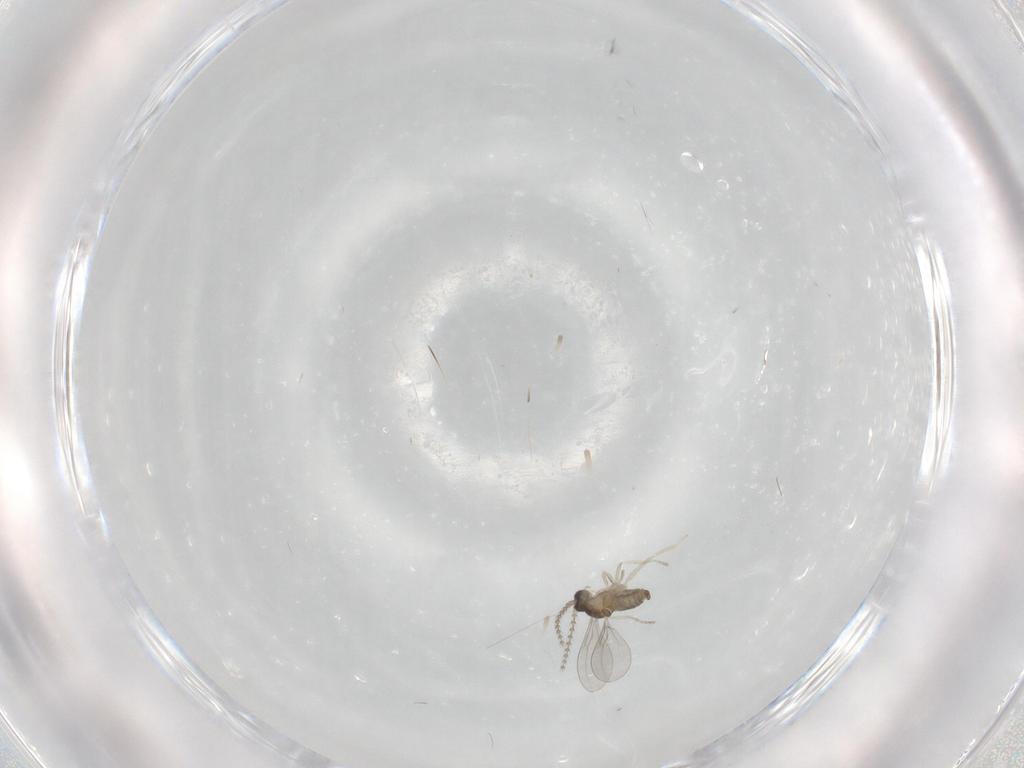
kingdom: Animalia
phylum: Arthropoda
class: Insecta
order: Diptera
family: Cecidomyiidae
